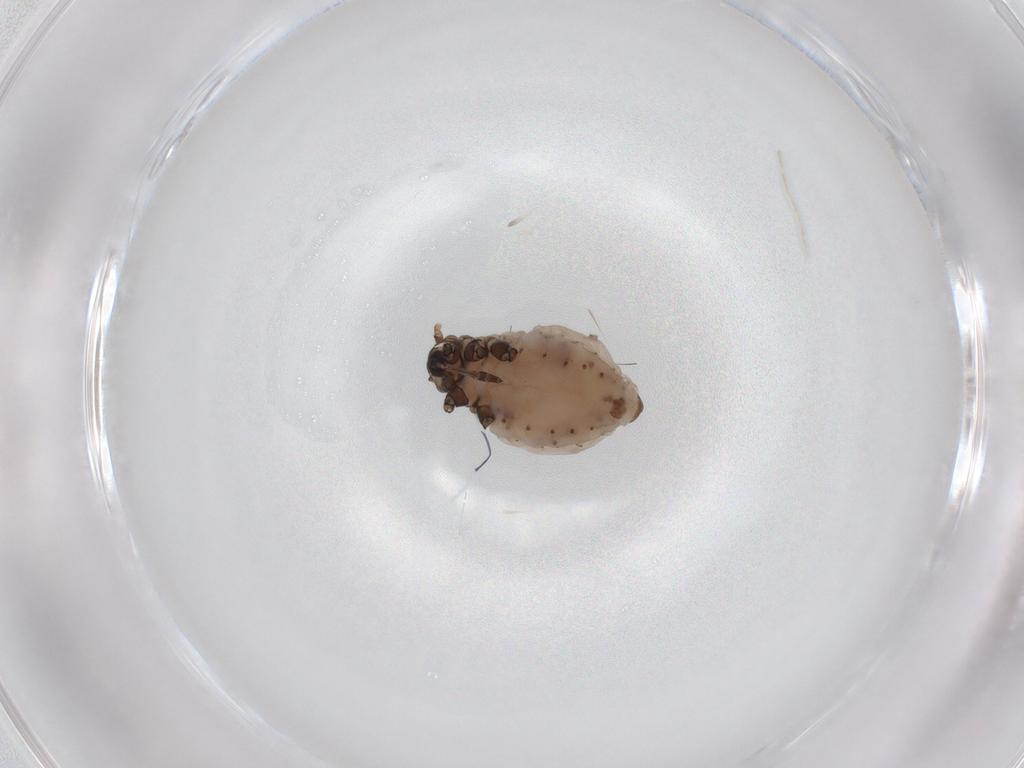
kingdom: Animalia
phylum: Arthropoda
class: Insecta
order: Hemiptera
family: Aphididae
